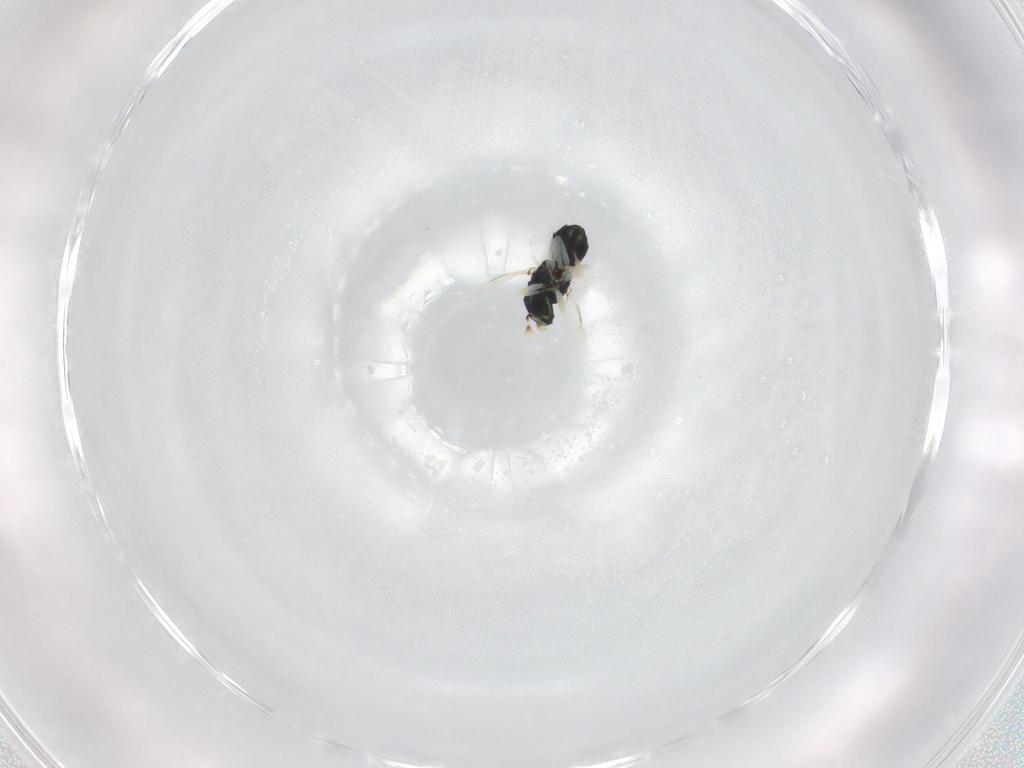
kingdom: Animalia
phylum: Arthropoda
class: Insecta
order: Hymenoptera
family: Eulophidae
